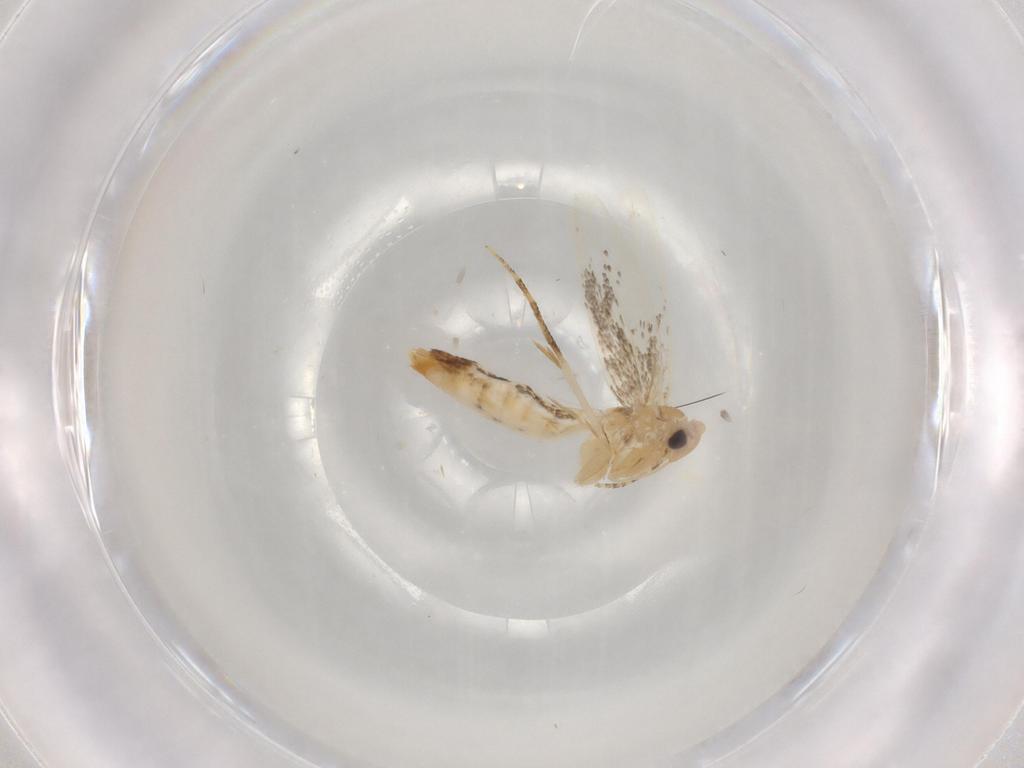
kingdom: Animalia
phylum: Arthropoda
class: Insecta
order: Lepidoptera
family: Bucculatricidae
